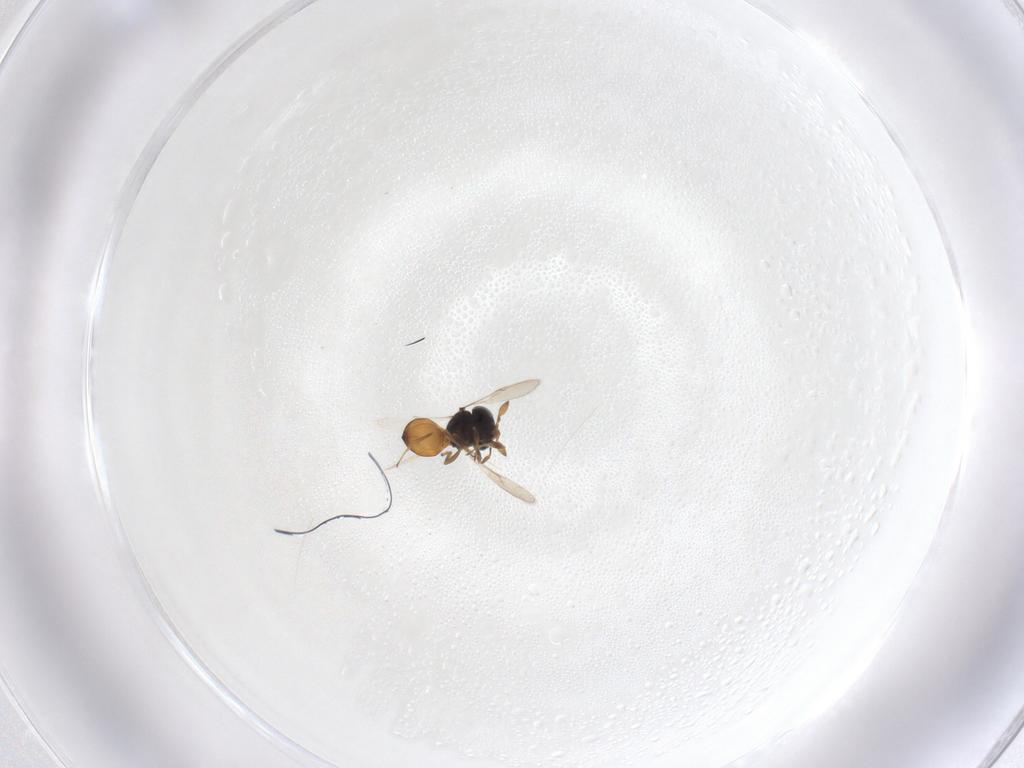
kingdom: Animalia
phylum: Arthropoda
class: Insecta
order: Hymenoptera
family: Scelionidae
